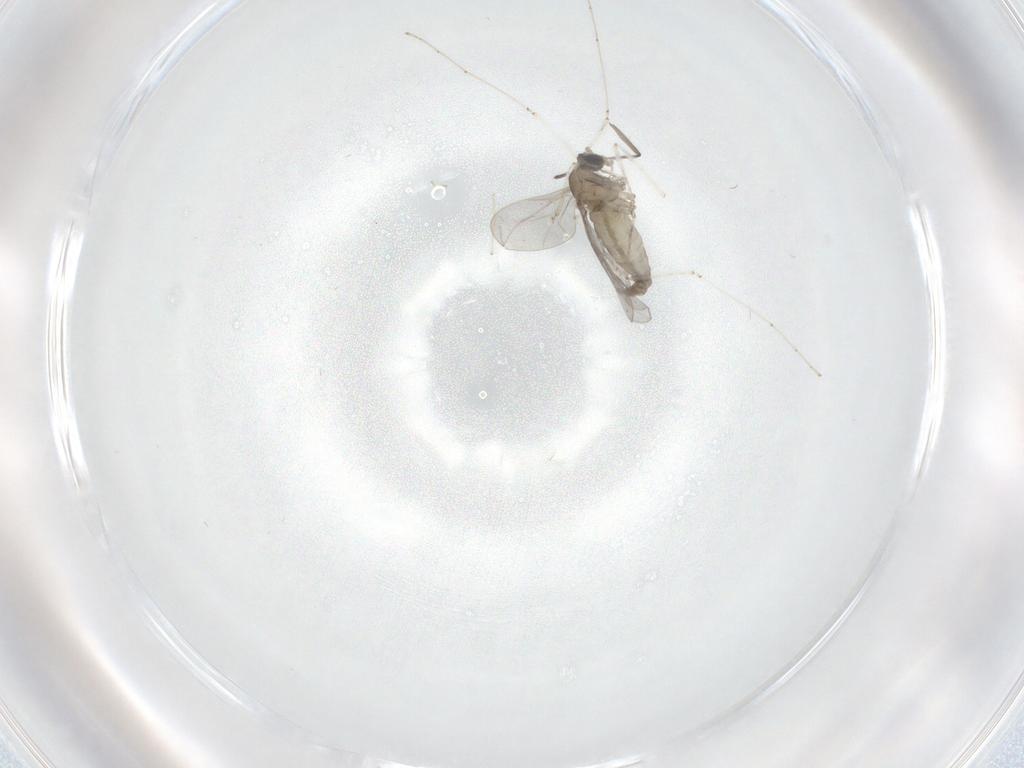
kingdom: Animalia
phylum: Arthropoda
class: Insecta
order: Diptera
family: Cecidomyiidae
